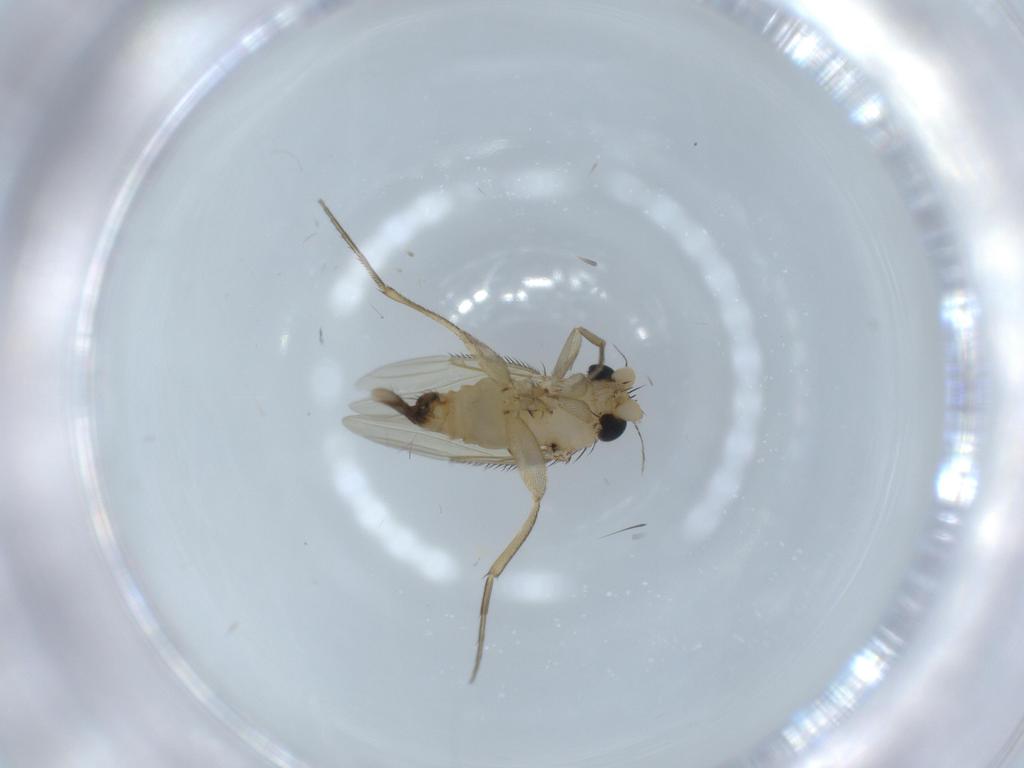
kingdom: Animalia
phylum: Arthropoda
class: Insecta
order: Diptera
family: Phoridae
